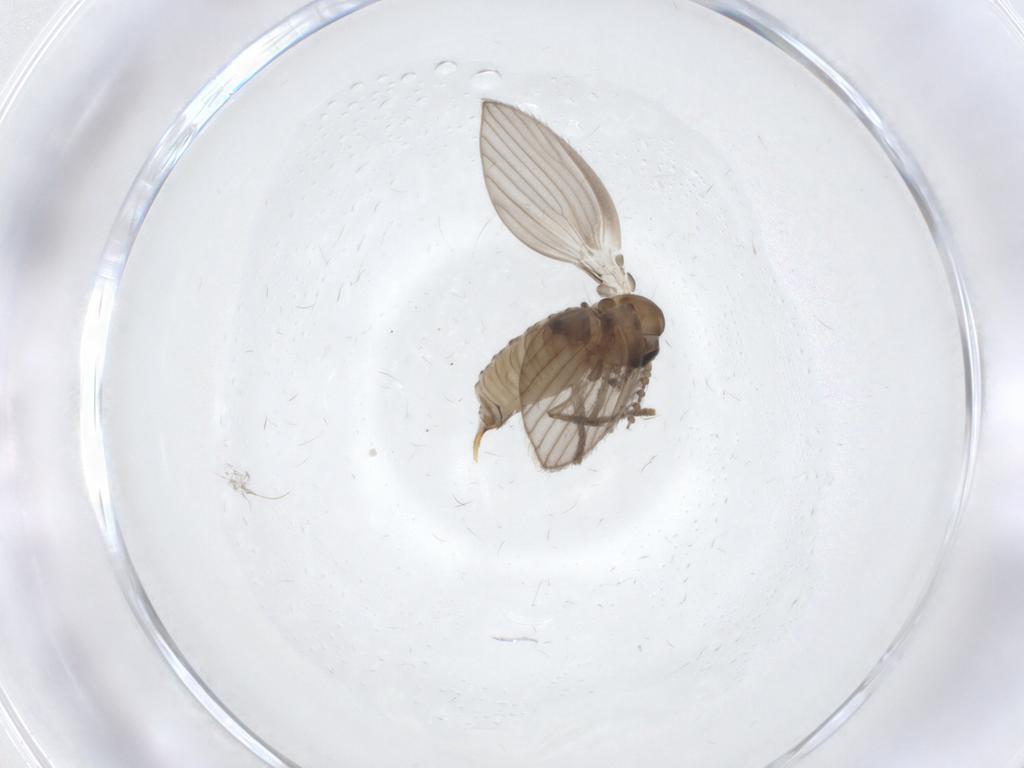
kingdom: Animalia
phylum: Arthropoda
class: Insecta
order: Diptera
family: Psychodidae
